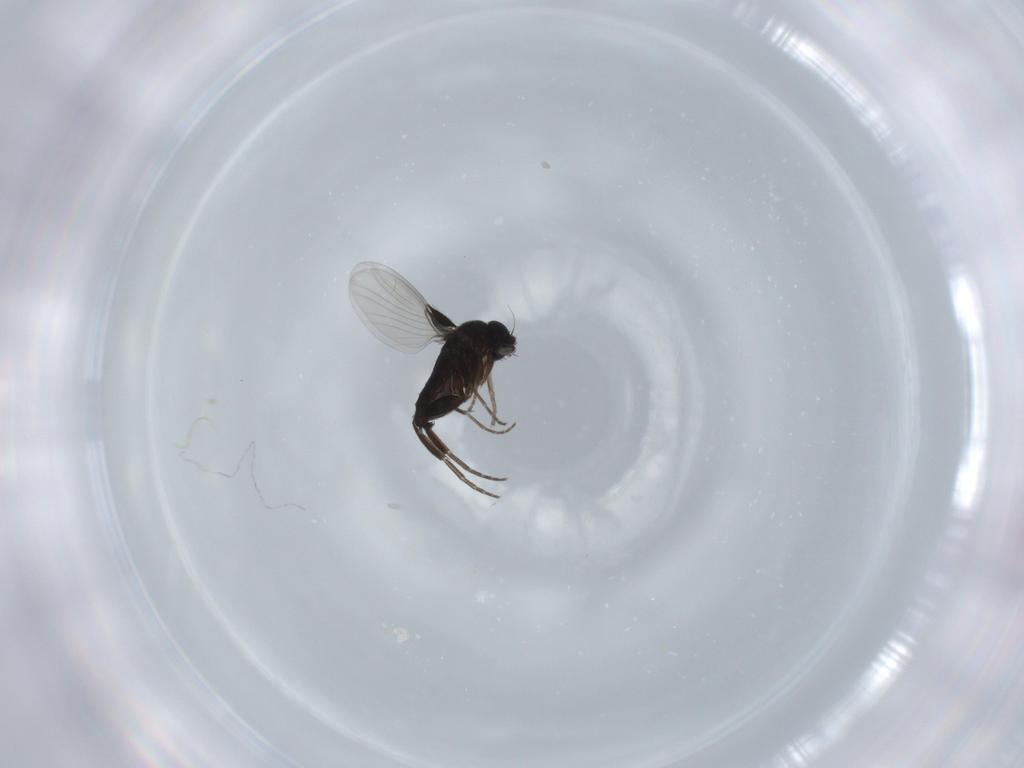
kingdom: Animalia
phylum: Arthropoda
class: Insecta
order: Diptera
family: Phoridae
